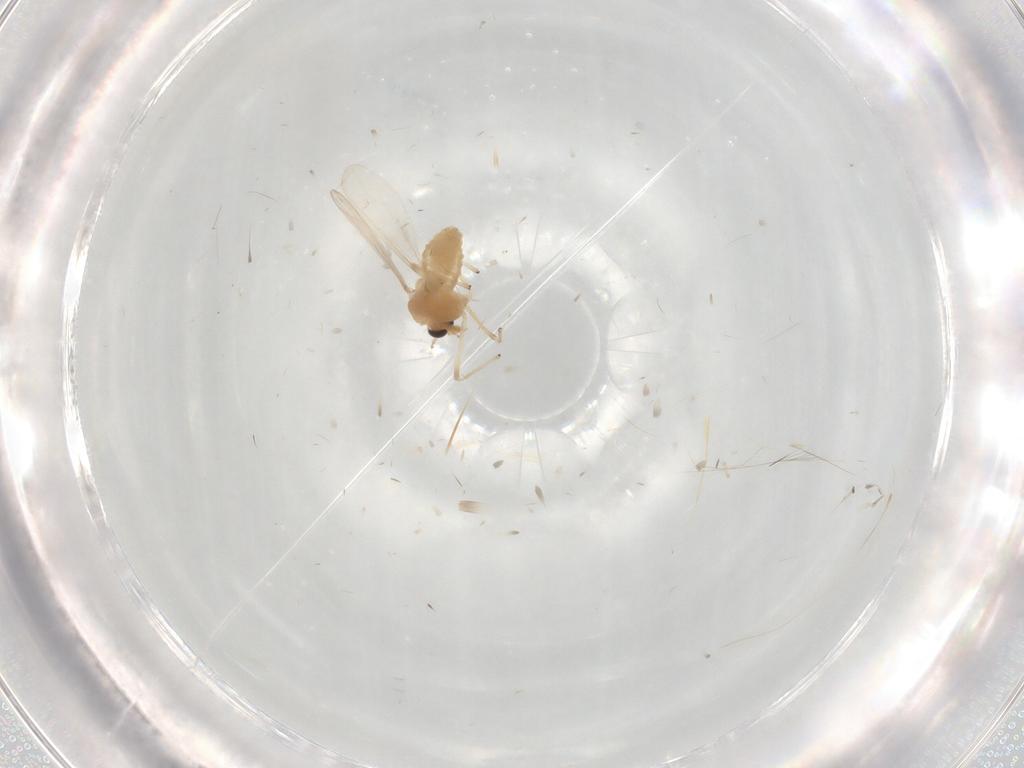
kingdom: Animalia
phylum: Arthropoda
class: Insecta
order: Diptera
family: Chironomidae
